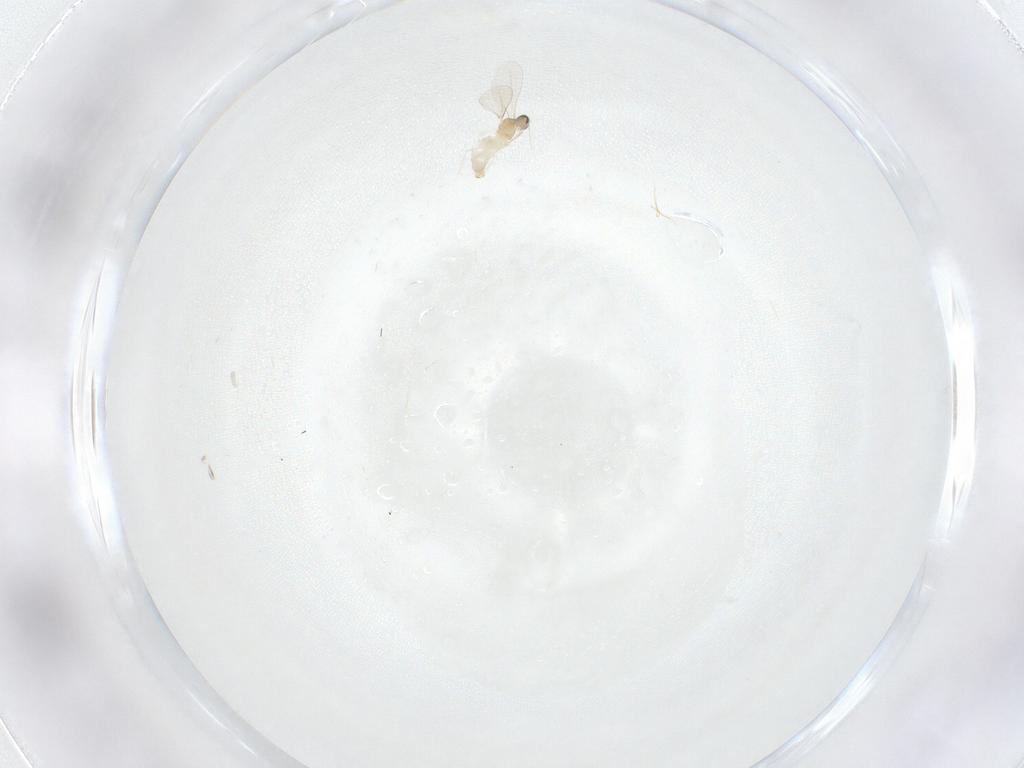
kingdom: Animalia
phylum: Arthropoda
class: Insecta
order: Diptera
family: Cecidomyiidae
